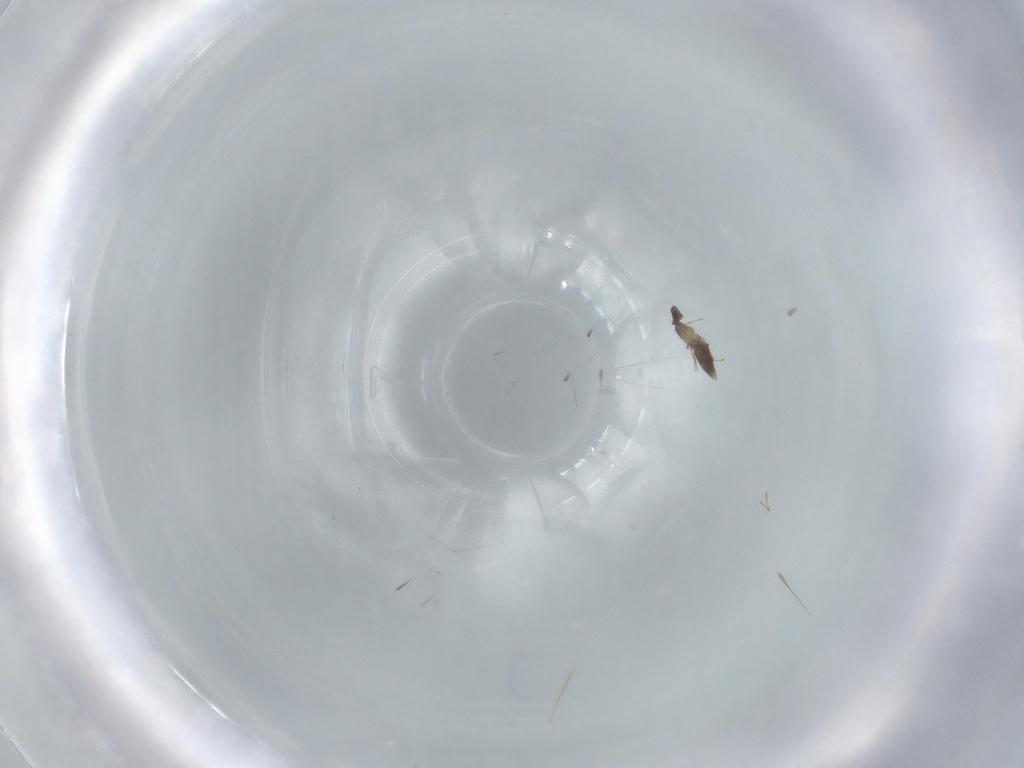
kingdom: Animalia
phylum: Arthropoda
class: Insecta
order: Hymenoptera
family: Mymaridae
